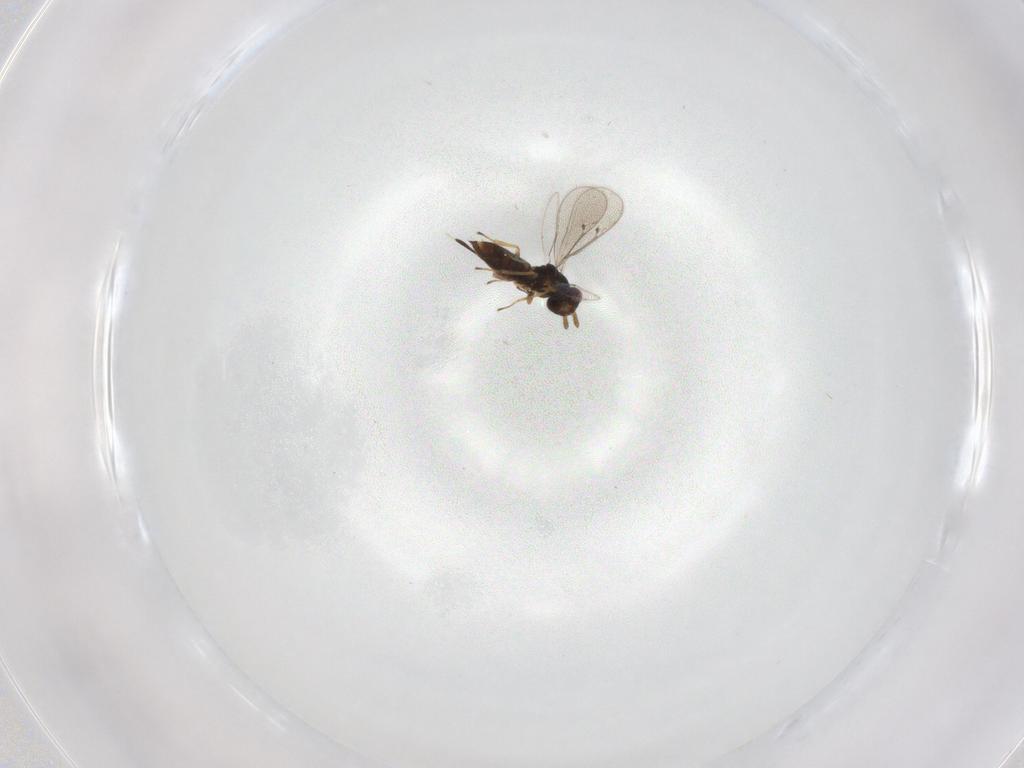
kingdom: Animalia
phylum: Arthropoda
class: Insecta
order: Hymenoptera
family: Eulophidae
